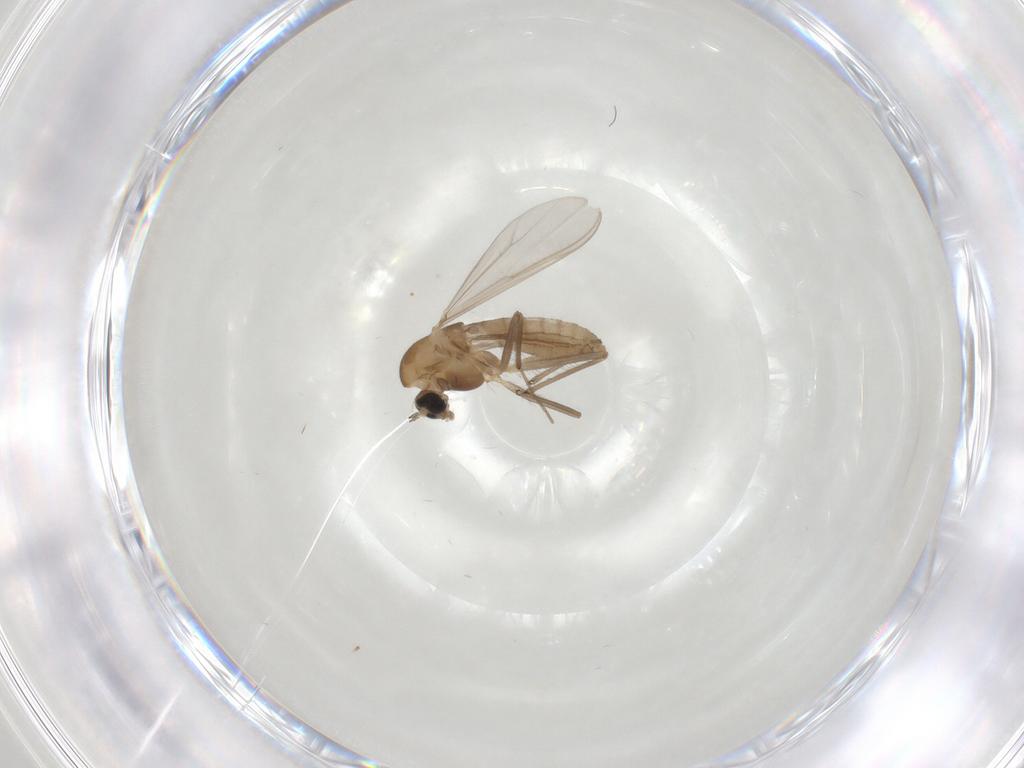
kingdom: Animalia
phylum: Arthropoda
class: Insecta
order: Diptera
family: Chironomidae
